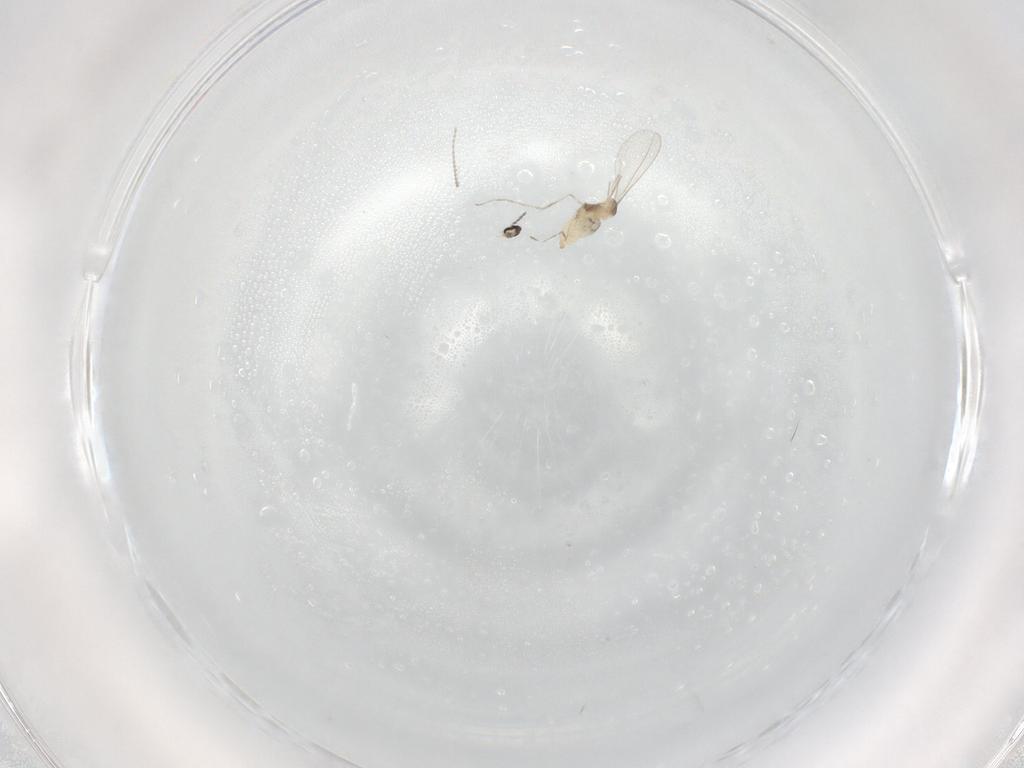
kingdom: Animalia
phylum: Arthropoda
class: Insecta
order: Diptera
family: Cecidomyiidae
